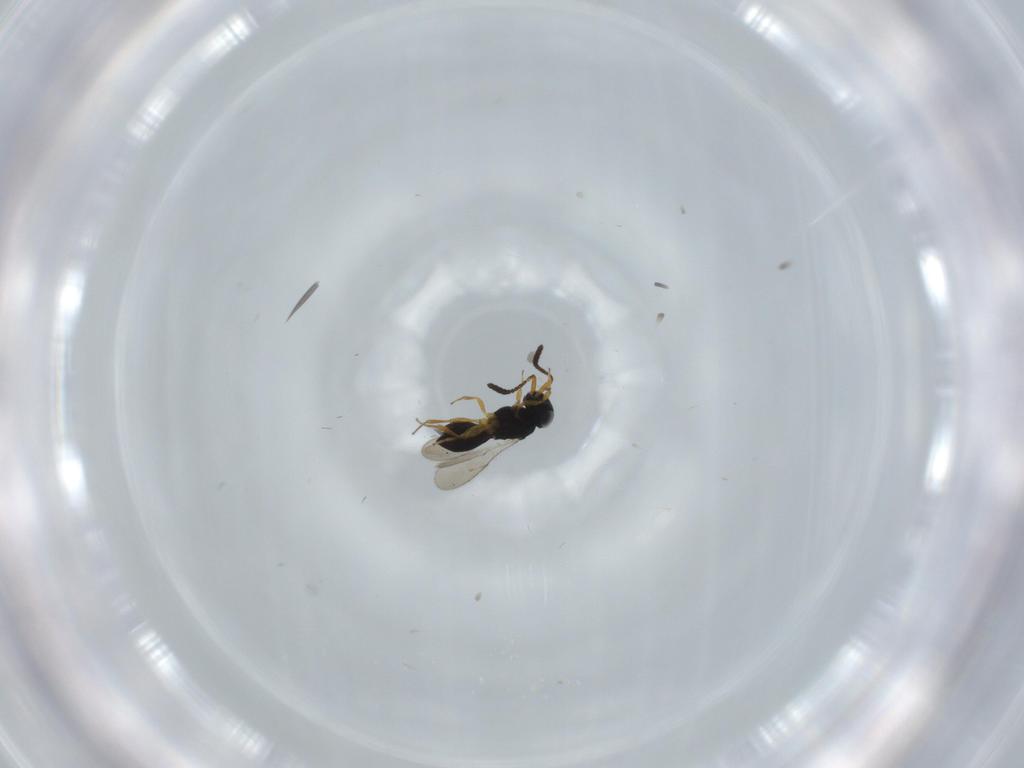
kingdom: Animalia
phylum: Arthropoda
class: Insecta
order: Hymenoptera
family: Scelionidae
